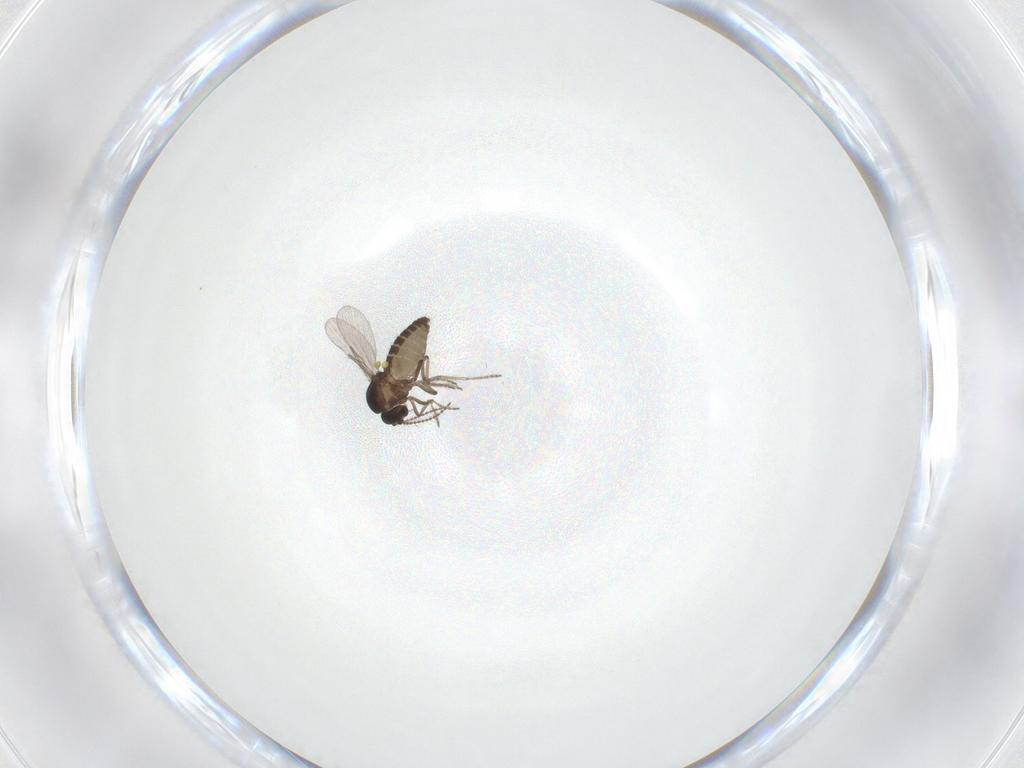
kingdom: Animalia
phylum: Arthropoda
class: Insecta
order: Diptera
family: Ceratopogonidae
